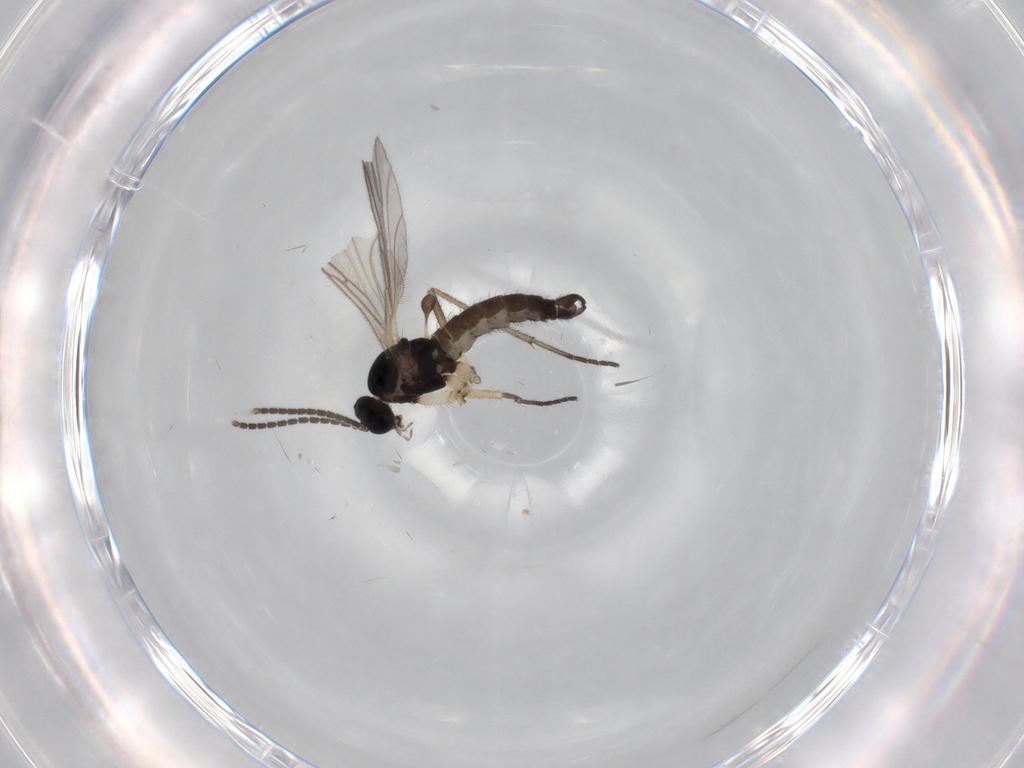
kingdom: Animalia
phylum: Arthropoda
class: Insecta
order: Diptera
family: Sciaridae
